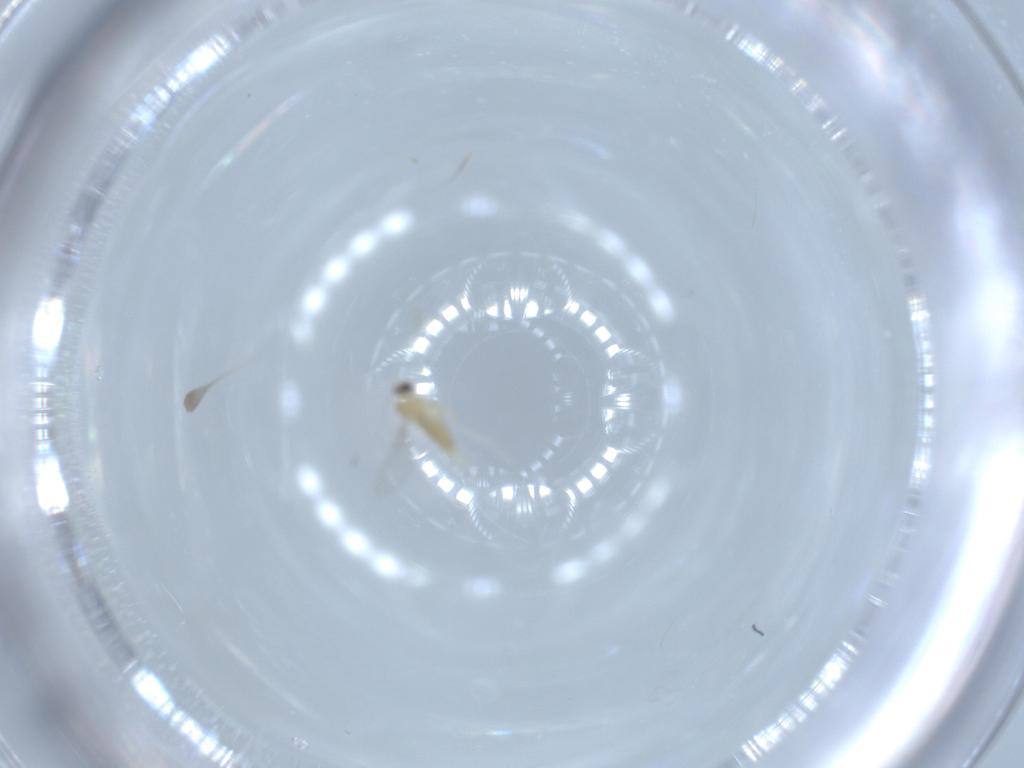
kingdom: Animalia
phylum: Arthropoda
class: Insecta
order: Diptera
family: Cecidomyiidae
